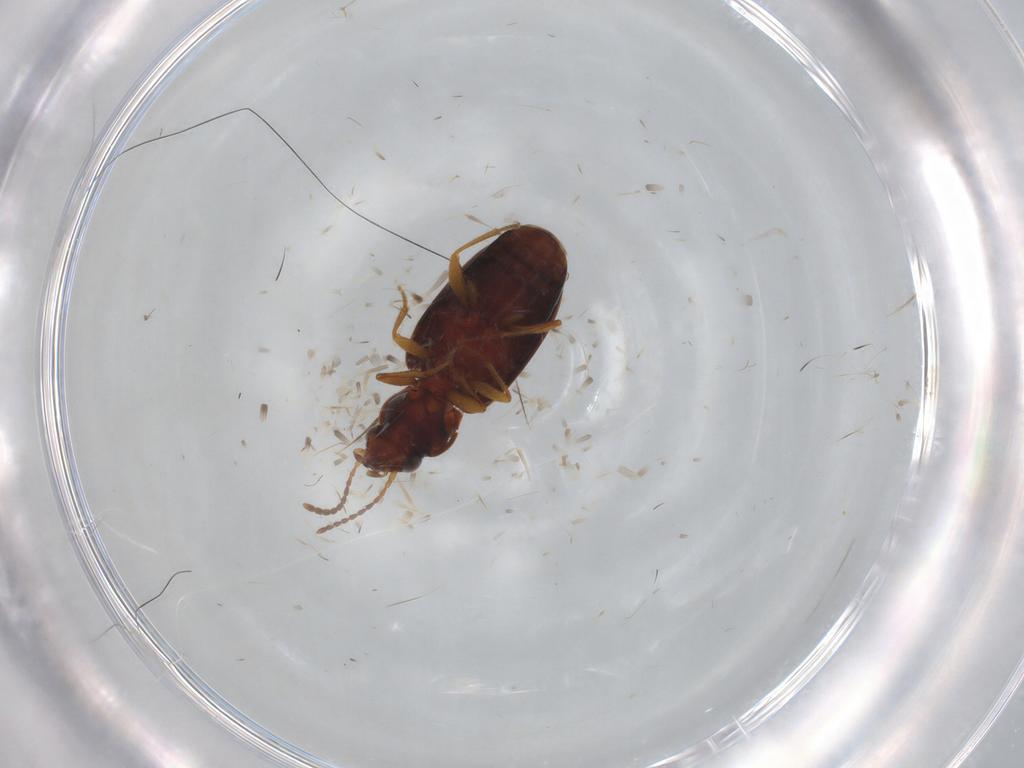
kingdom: Animalia
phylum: Arthropoda
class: Insecta
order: Coleoptera
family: Carabidae
